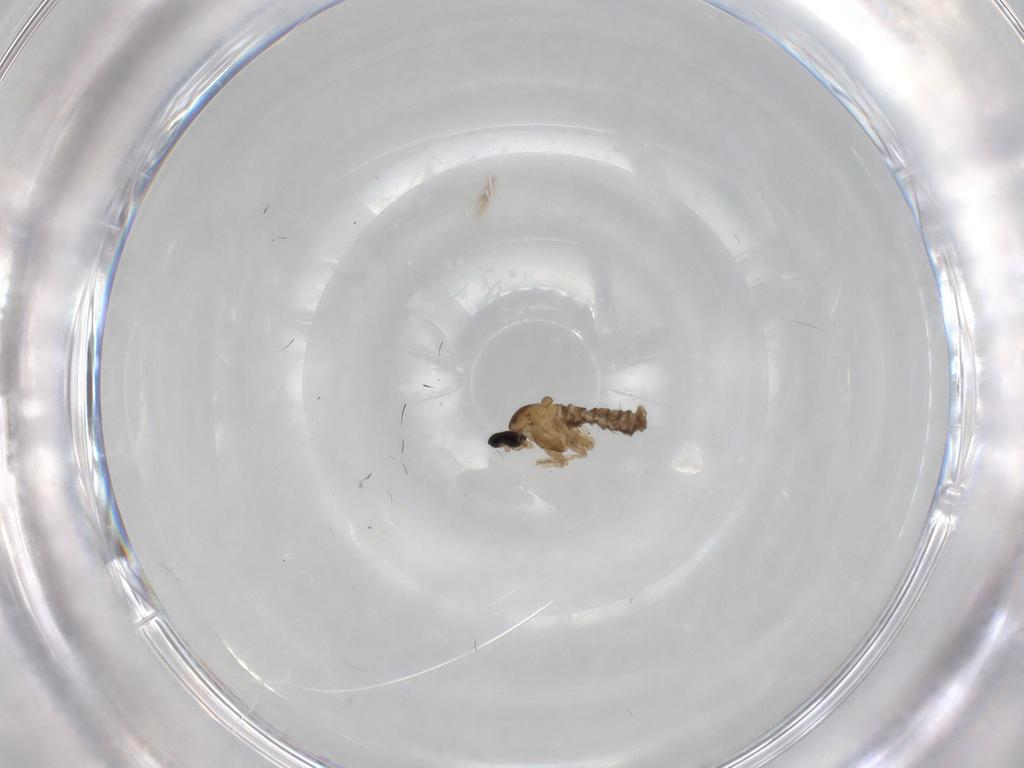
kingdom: Animalia
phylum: Arthropoda
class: Insecta
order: Diptera
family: Cecidomyiidae
